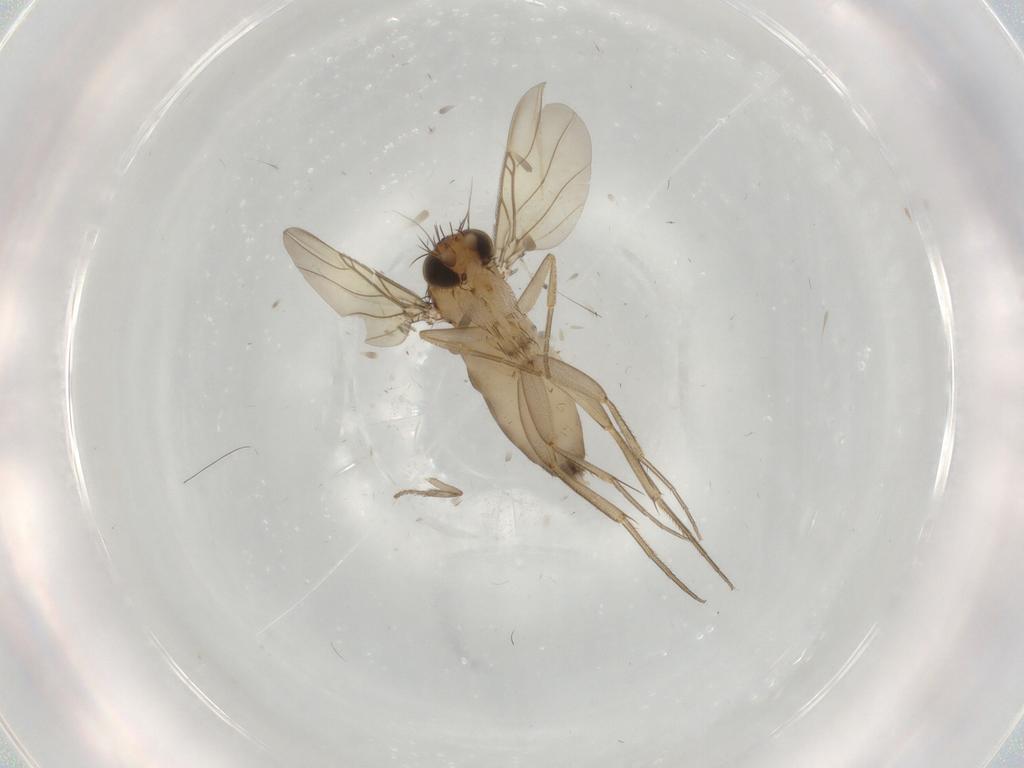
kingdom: Animalia
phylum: Arthropoda
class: Insecta
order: Diptera
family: Phoridae
